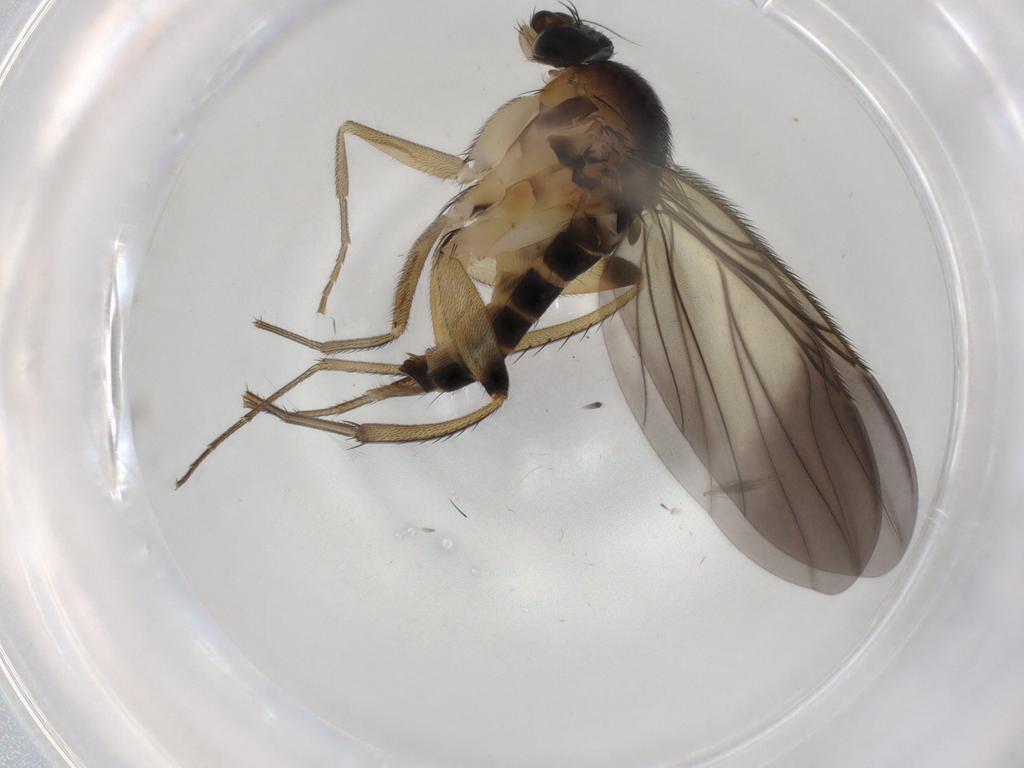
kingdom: Animalia
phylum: Arthropoda
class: Insecta
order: Diptera
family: Phoridae
